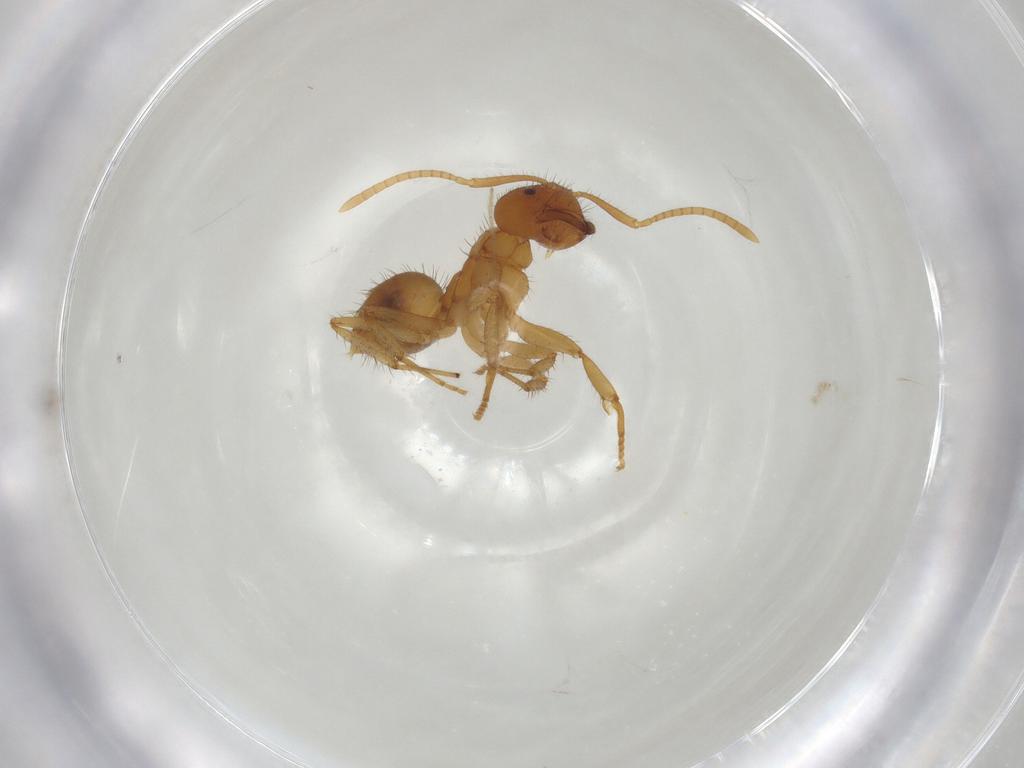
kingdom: Animalia
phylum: Arthropoda
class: Insecta
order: Hymenoptera
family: Formicidae
